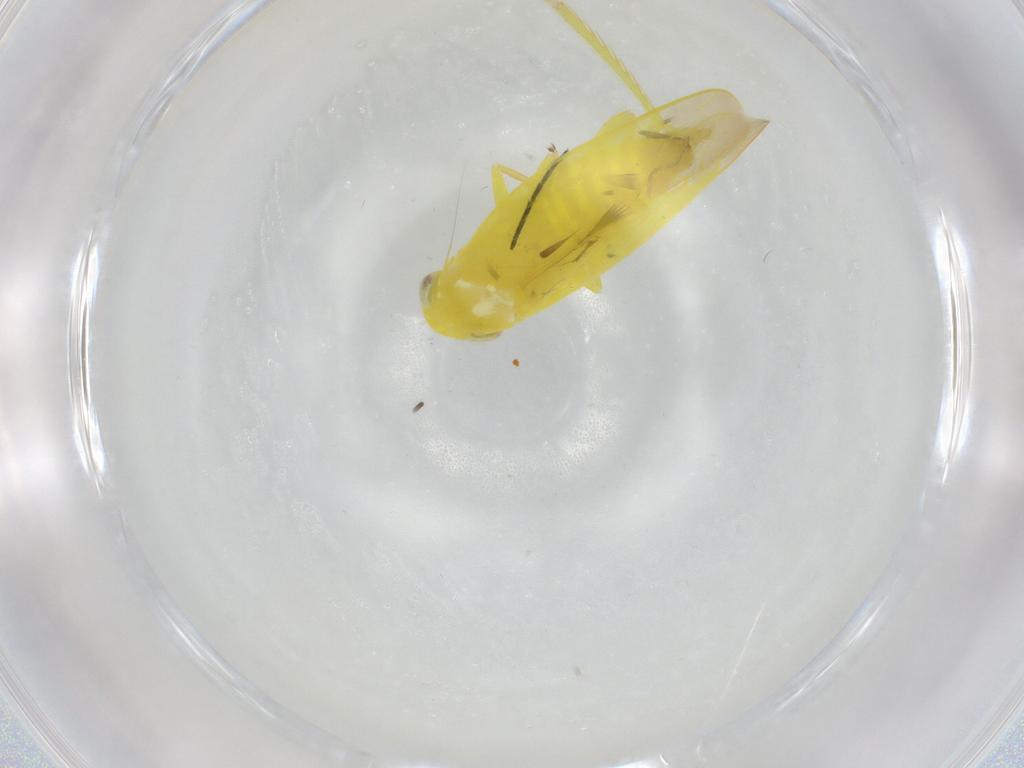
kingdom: Animalia
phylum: Arthropoda
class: Insecta
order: Hemiptera
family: Cicadellidae
